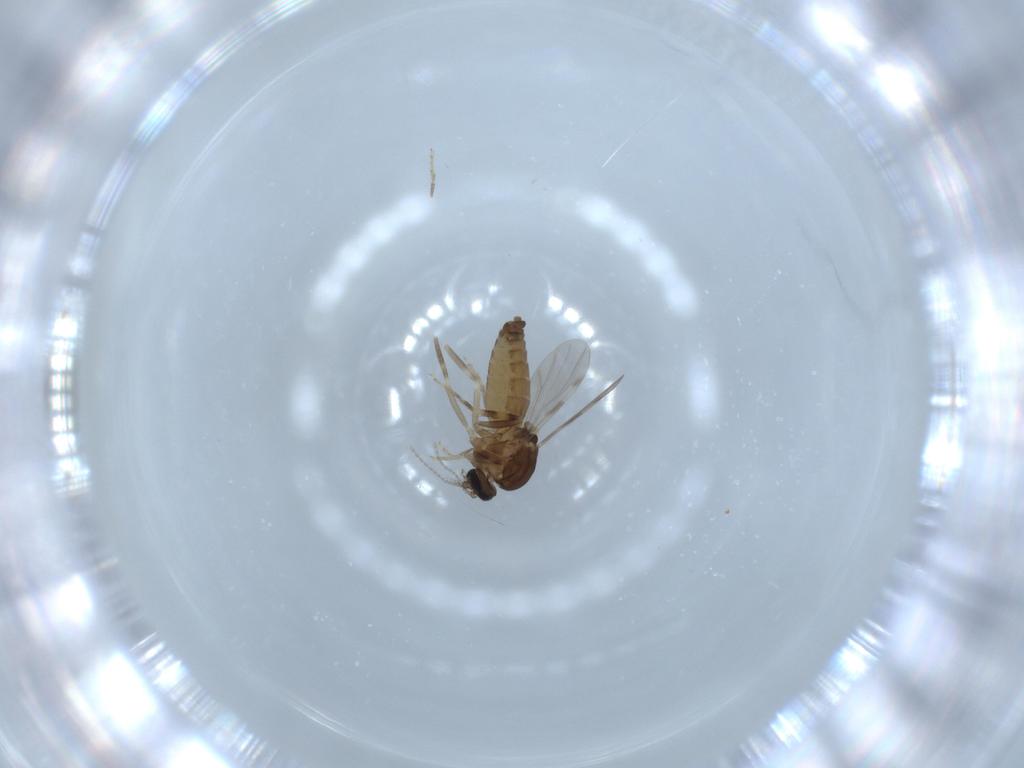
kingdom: Animalia
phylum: Arthropoda
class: Insecta
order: Diptera
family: Ceratopogonidae
